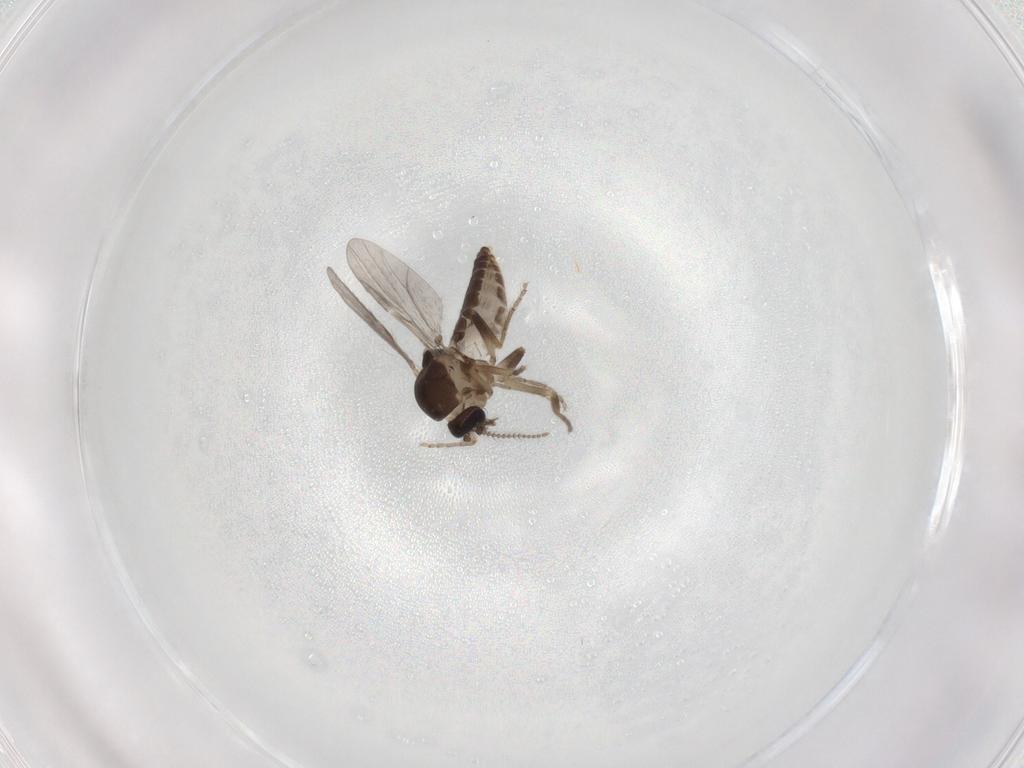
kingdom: Animalia
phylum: Arthropoda
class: Insecta
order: Diptera
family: Ceratopogonidae
